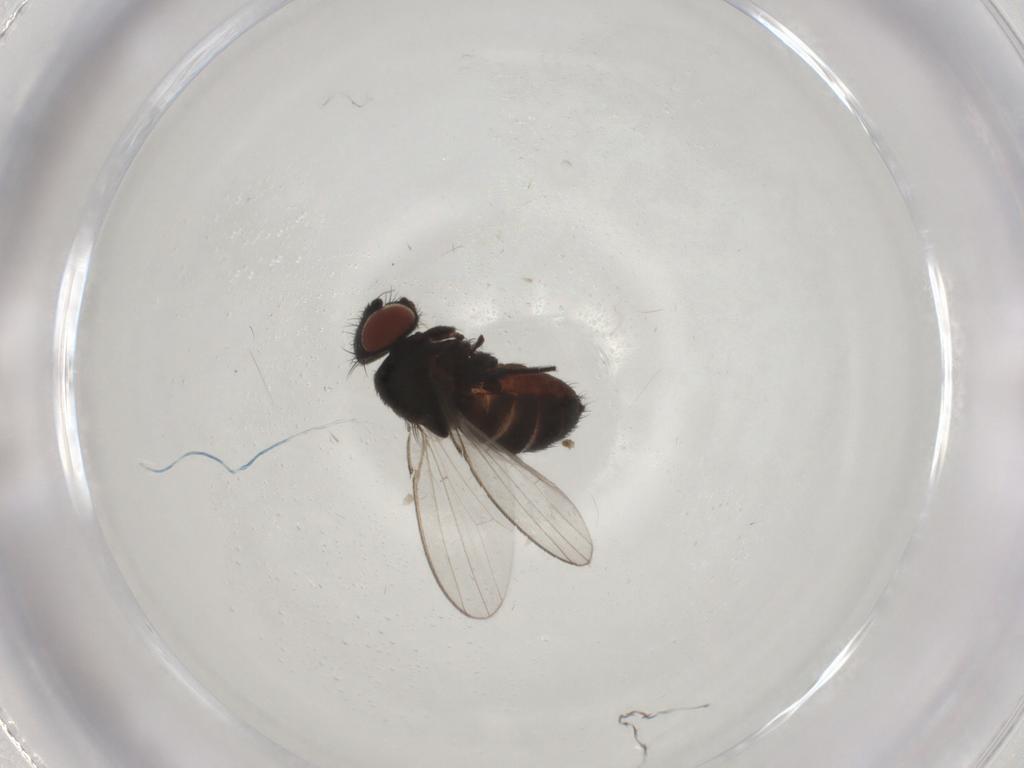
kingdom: Animalia
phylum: Arthropoda
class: Insecta
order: Diptera
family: Milichiidae
